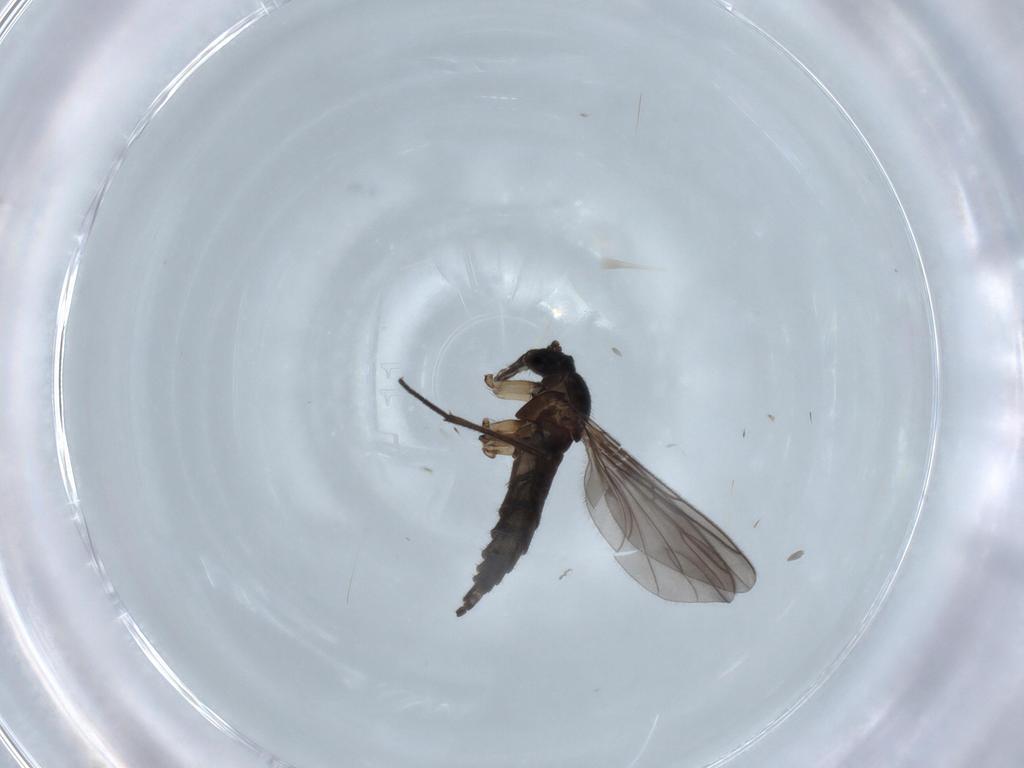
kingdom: Animalia
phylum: Arthropoda
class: Insecta
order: Diptera
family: Sciaridae
